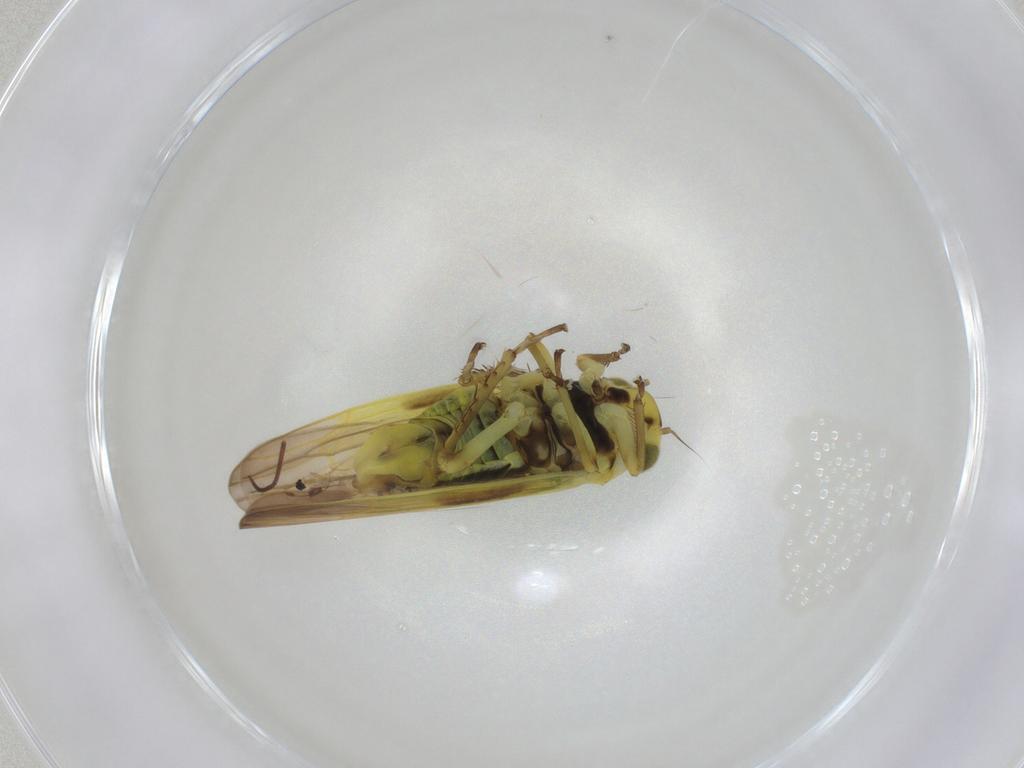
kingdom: Animalia
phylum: Arthropoda
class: Insecta
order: Hemiptera
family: Cicadellidae
